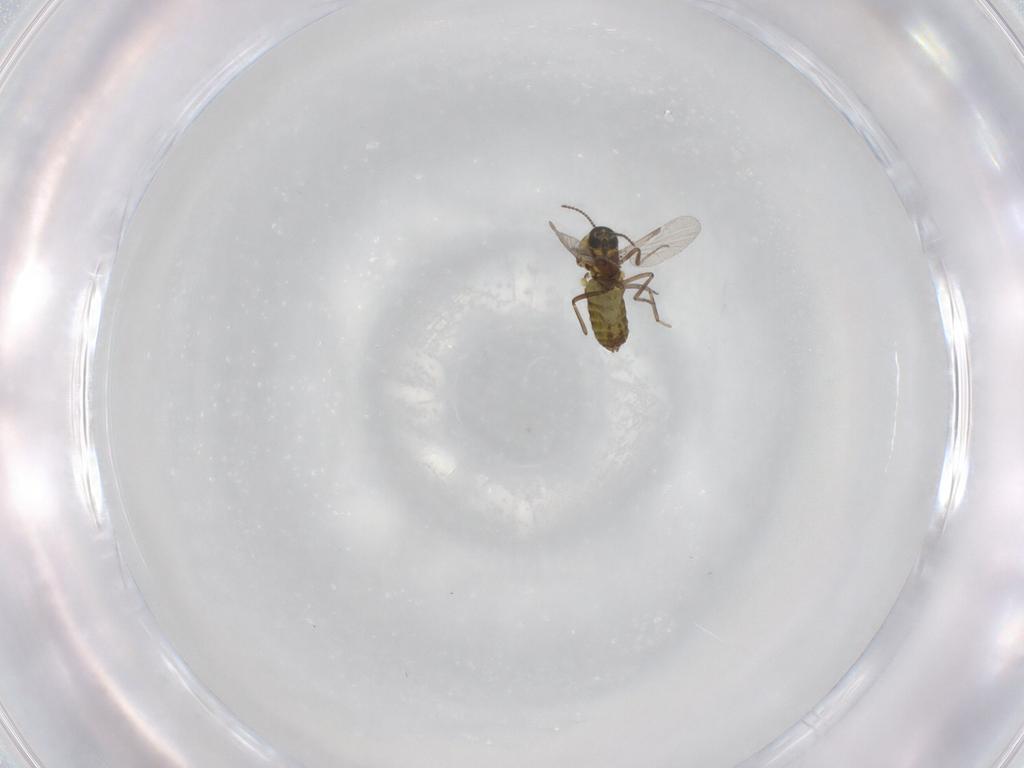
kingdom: Animalia
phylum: Arthropoda
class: Insecta
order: Diptera
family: Ceratopogonidae
